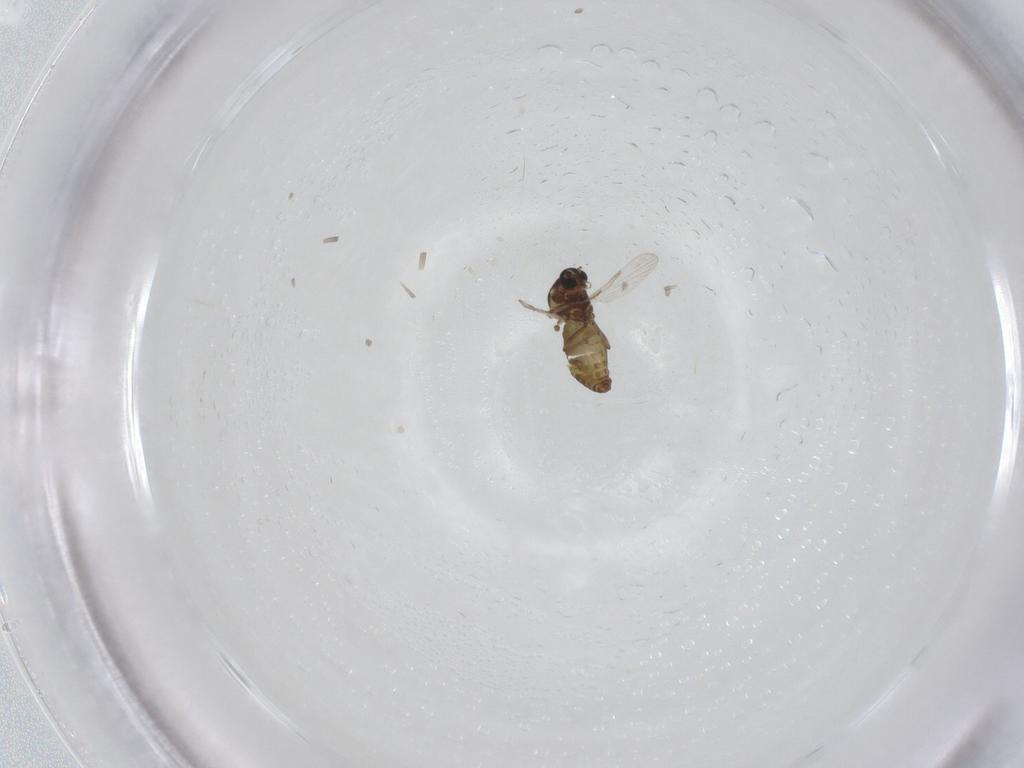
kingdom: Animalia
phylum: Arthropoda
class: Insecta
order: Diptera
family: Ceratopogonidae
